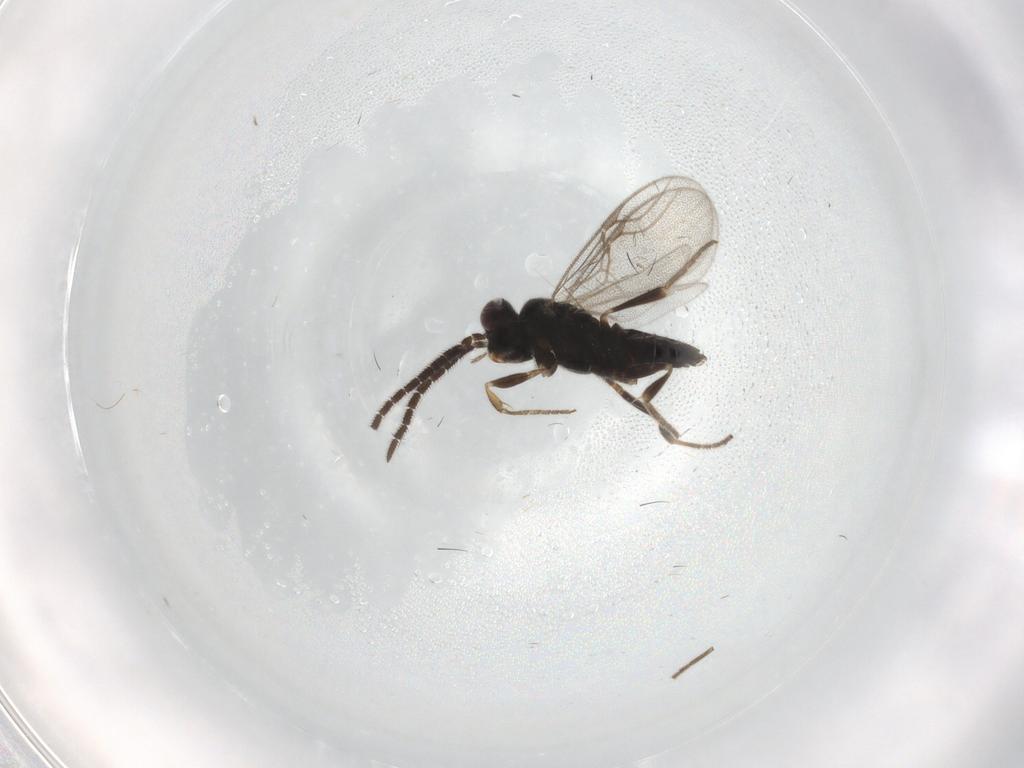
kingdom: Animalia
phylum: Arthropoda
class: Insecta
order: Hymenoptera
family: Dryinidae
